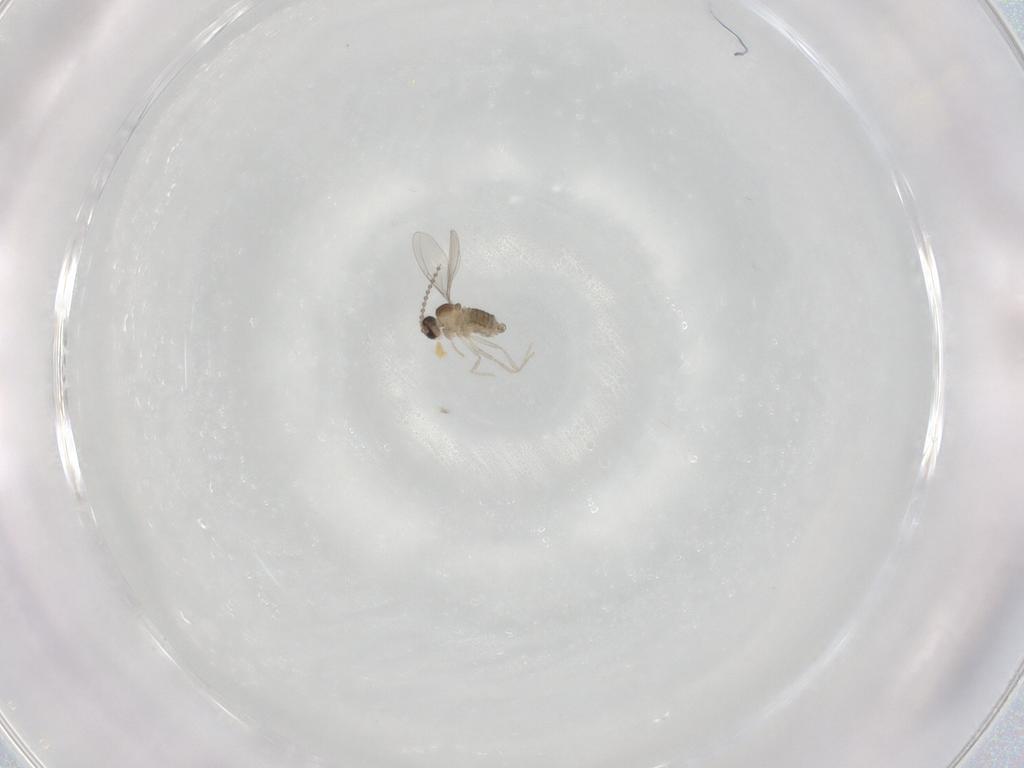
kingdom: Animalia
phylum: Arthropoda
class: Insecta
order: Diptera
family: Cecidomyiidae
